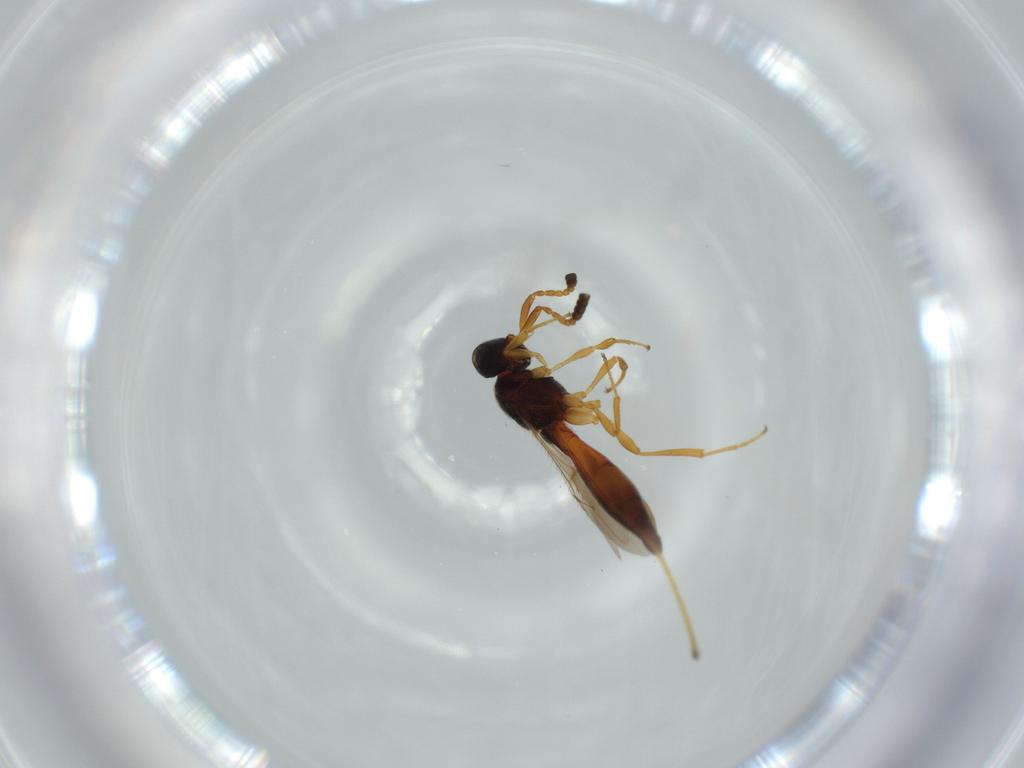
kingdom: Animalia
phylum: Arthropoda
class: Insecta
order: Hymenoptera
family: Scelionidae
